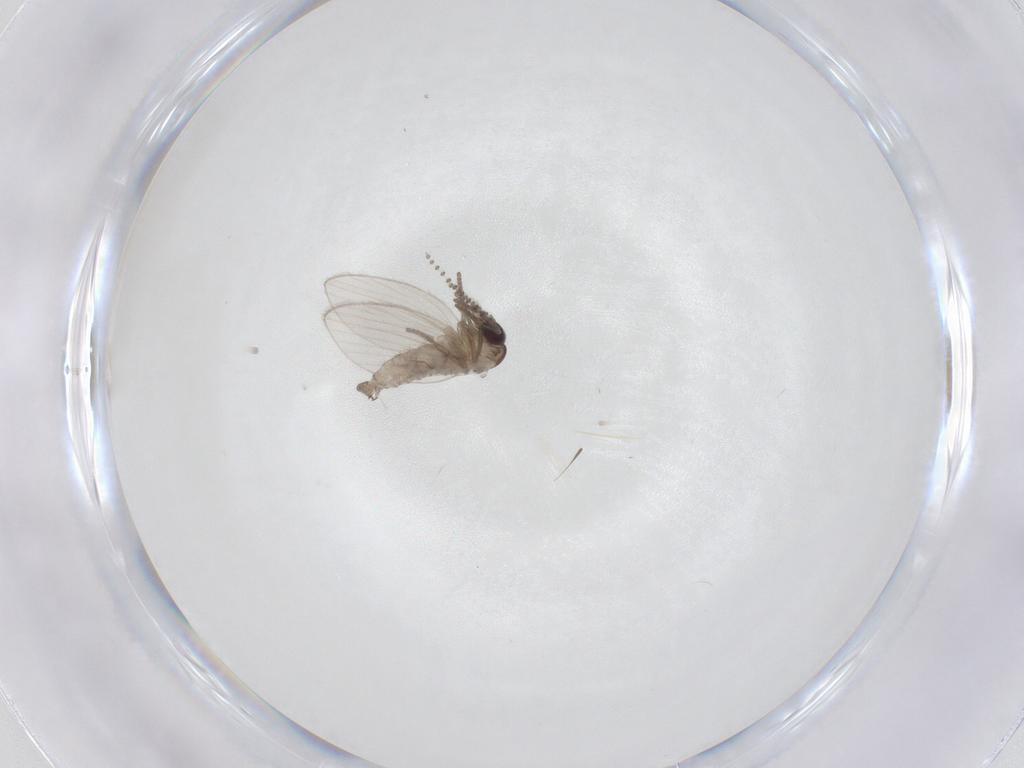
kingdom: Animalia
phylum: Arthropoda
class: Insecta
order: Diptera
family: Psychodidae
